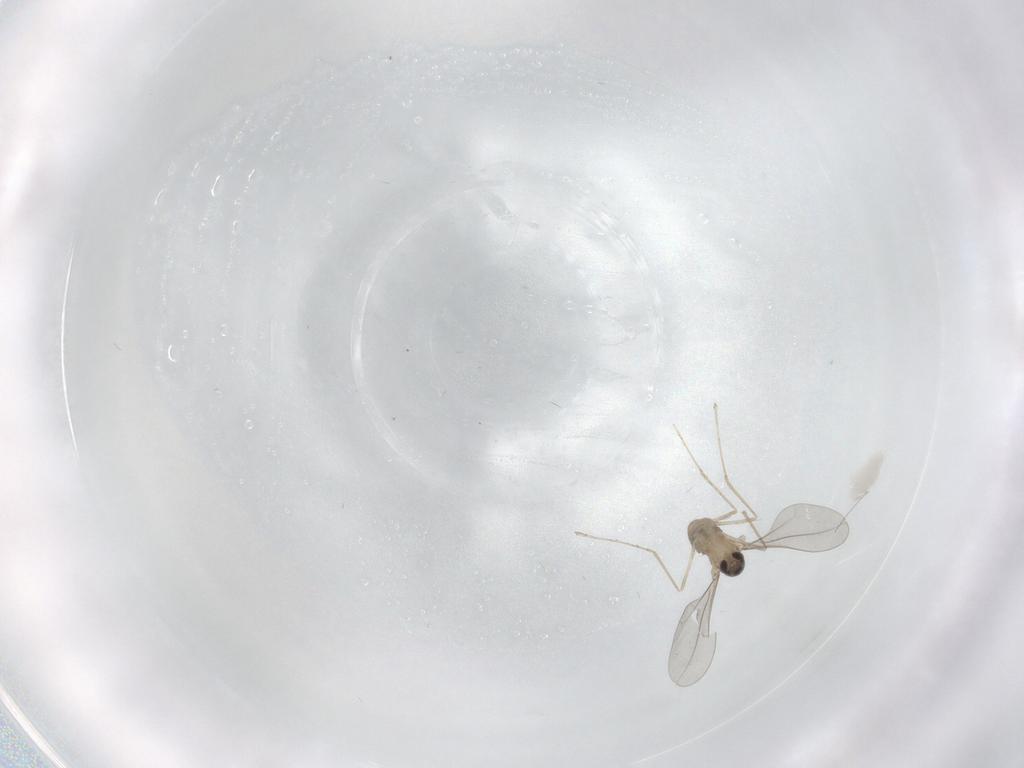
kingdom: Animalia
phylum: Arthropoda
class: Insecta
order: Diptera
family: Cecidomyiidae
